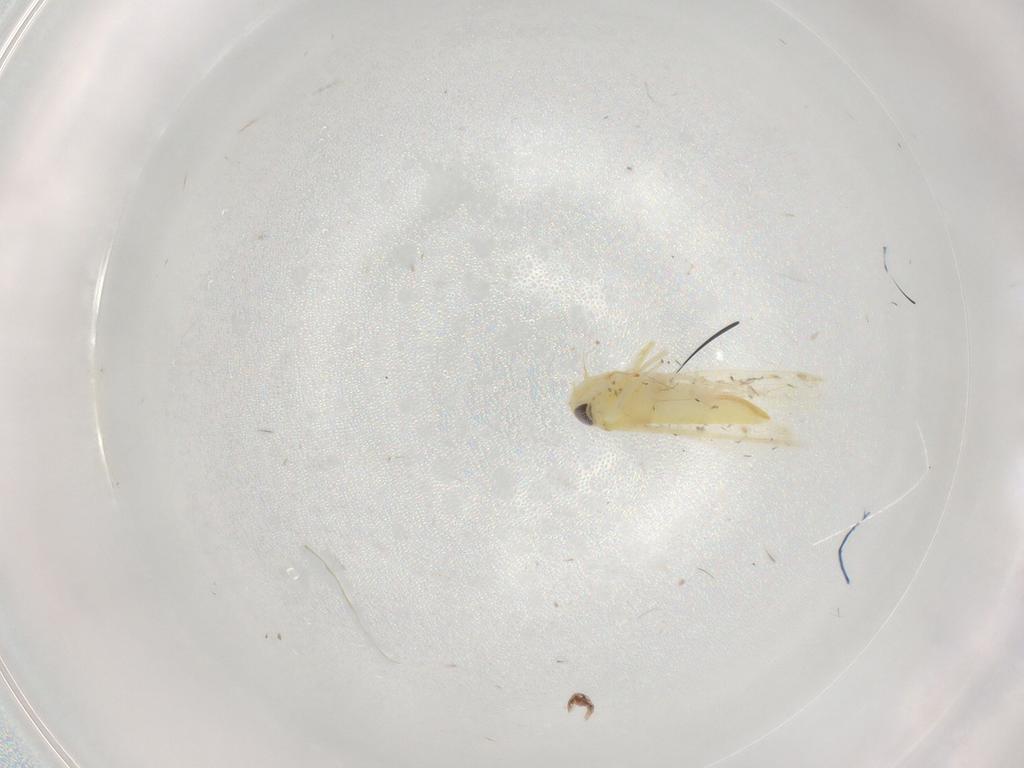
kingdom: Animalia
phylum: Arthropoda
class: Insecta
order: Hemiptera
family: Cicadellidae
